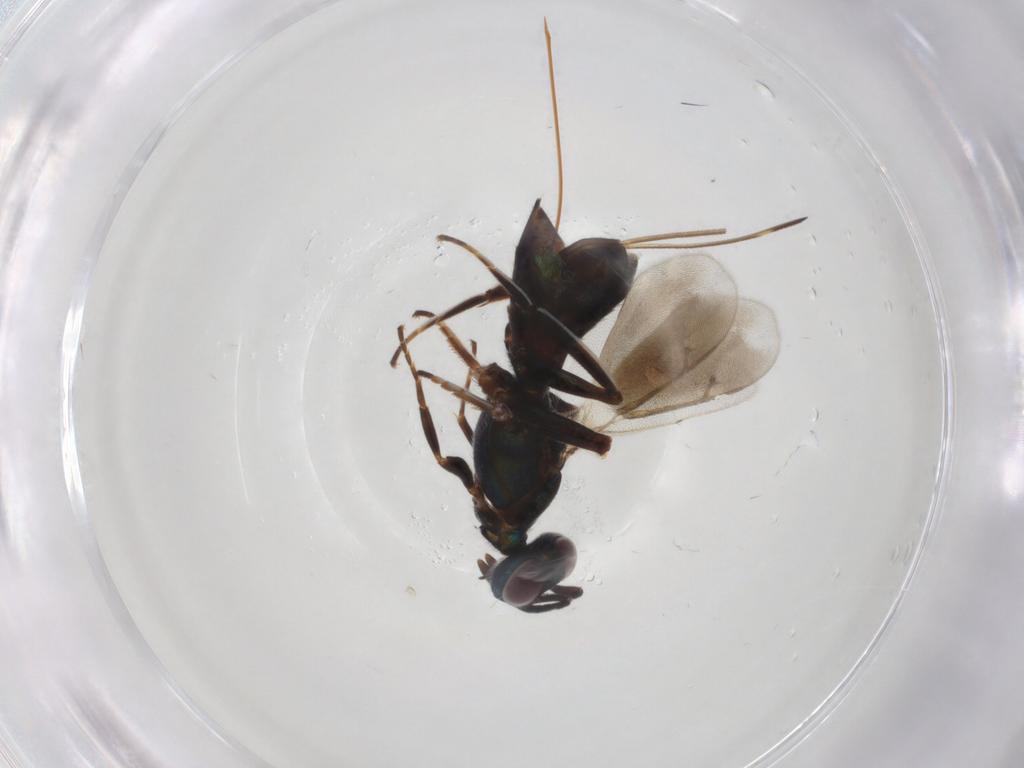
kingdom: Animalia
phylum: Arthropoda
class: Insecta
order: Hymenoptera
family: Eupelmidae
